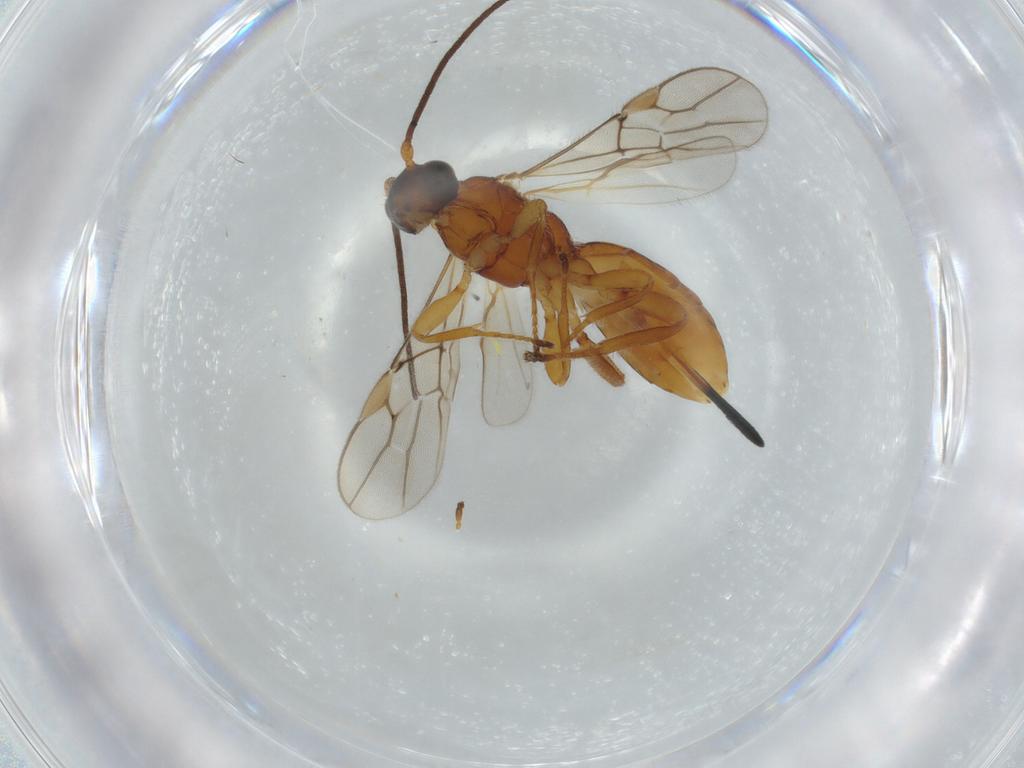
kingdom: Animalia
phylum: Arthropoda
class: Insecta
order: Hymenoptera
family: Braconidae
